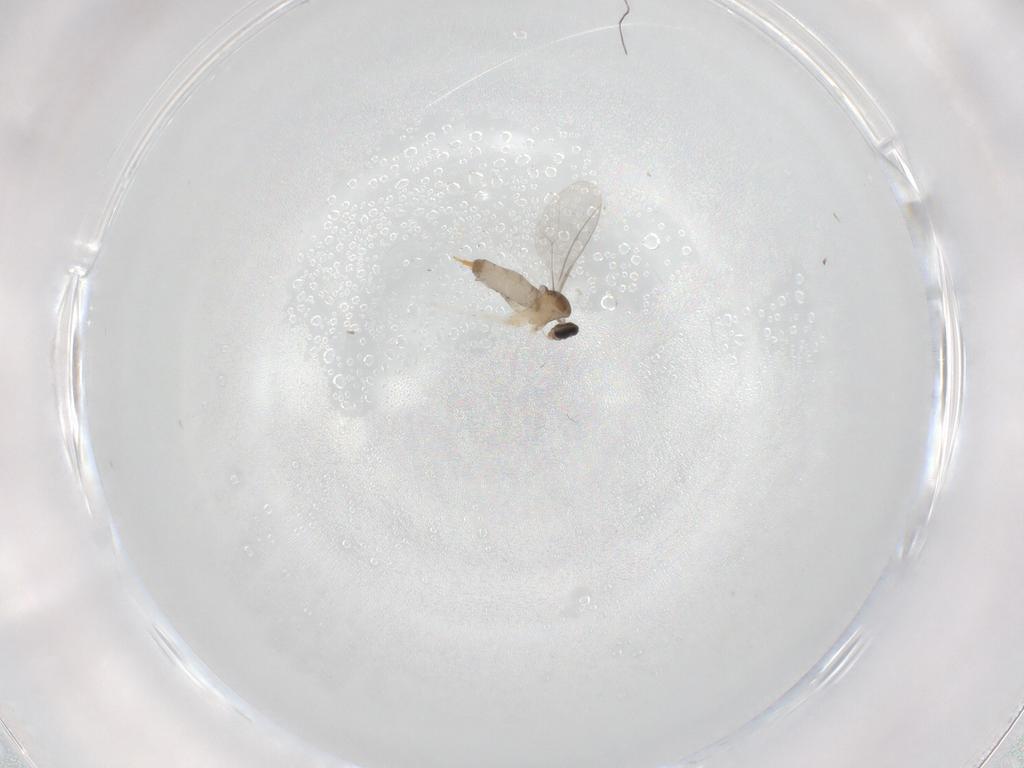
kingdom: Animalia
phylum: Arthropoda
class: Insecta
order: Diptera
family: Cecidomyiidae
